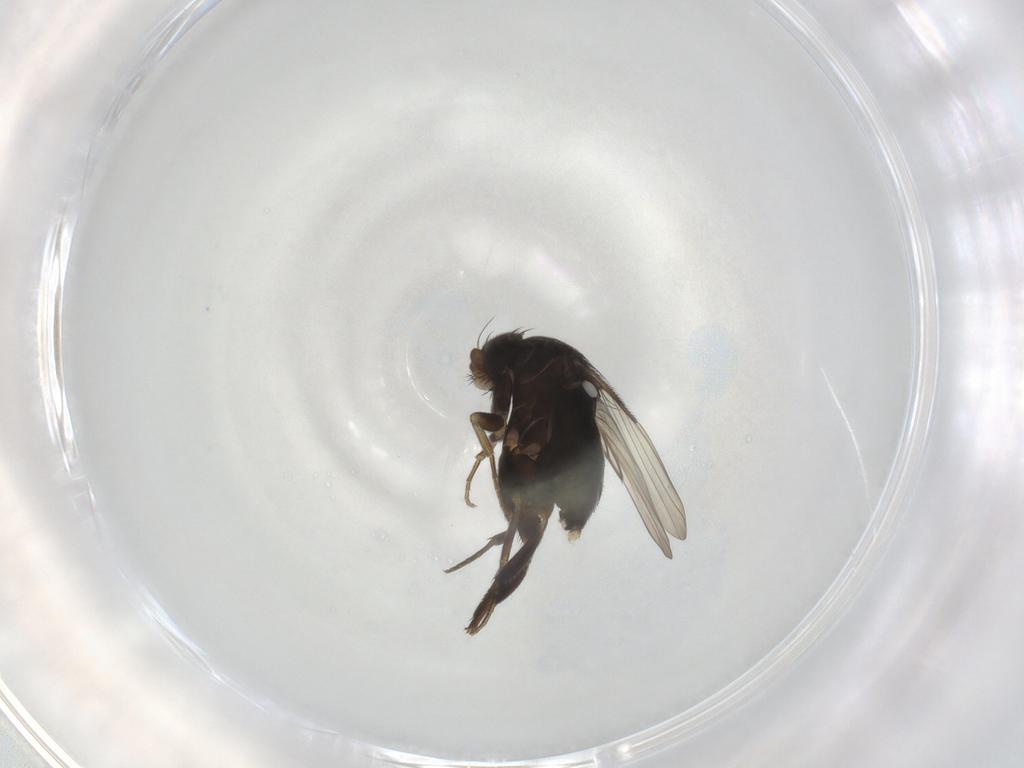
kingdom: Animalia
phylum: Arthropoda
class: Insecta
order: Diptera
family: Phoridae
